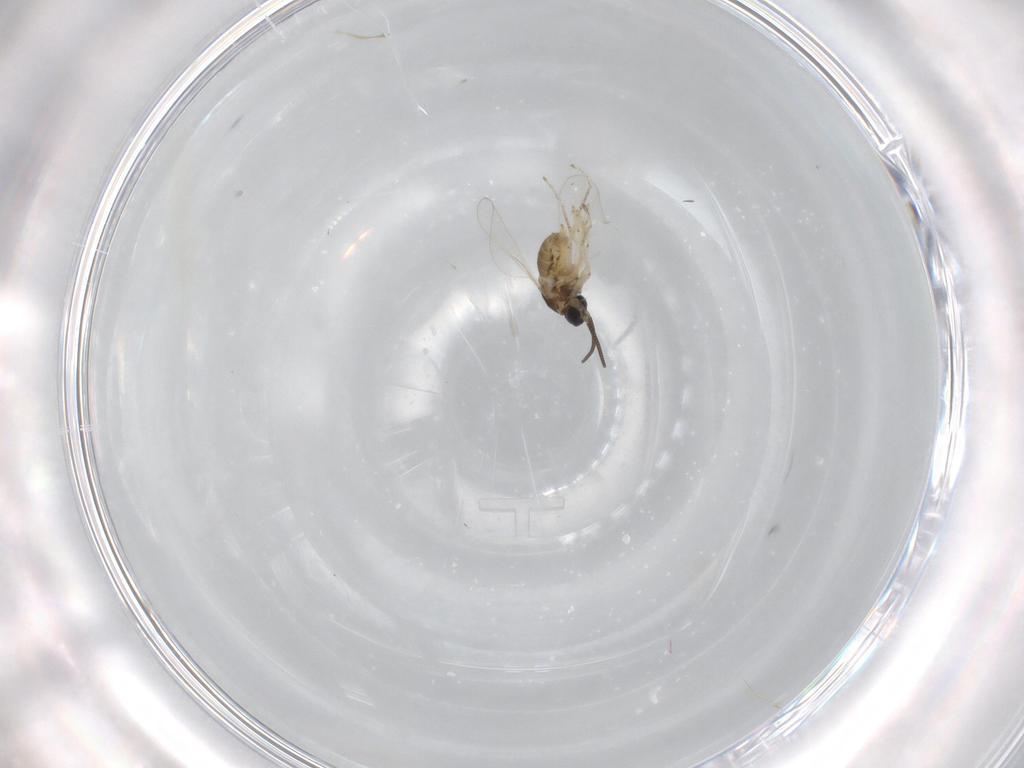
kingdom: Animalia
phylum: Arthropoda
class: Insecta
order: Diptera
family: Cecidomyiidae
